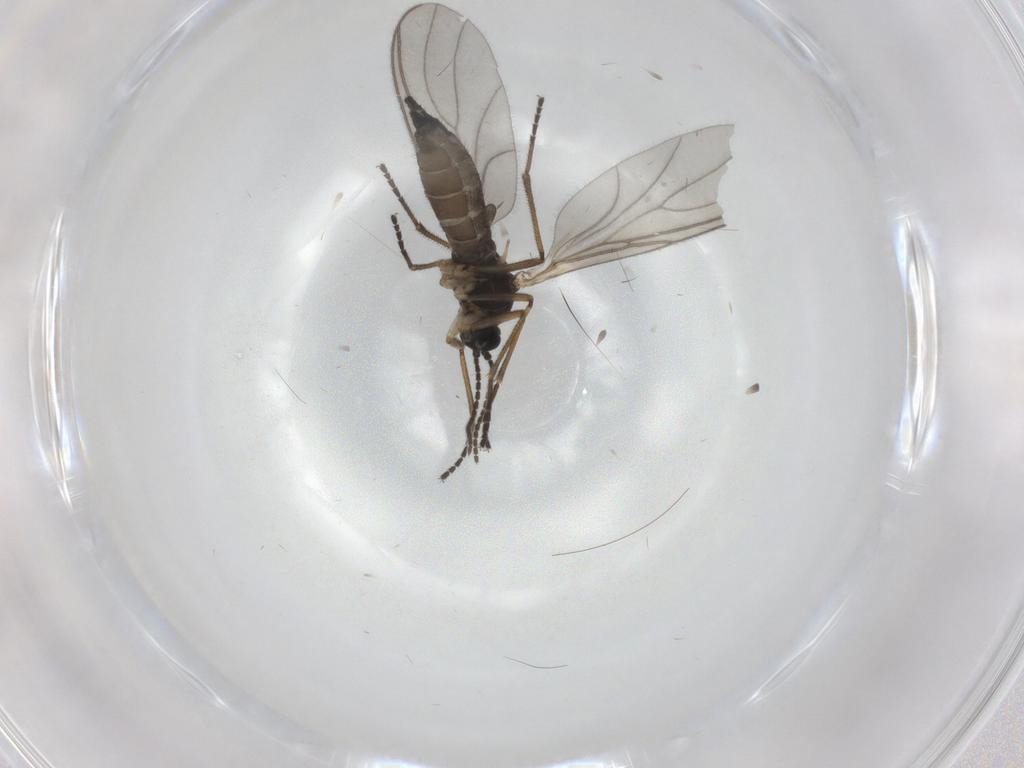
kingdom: Animalia
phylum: Arthropoda
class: Insecta
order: Diptera
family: Sciaridae
